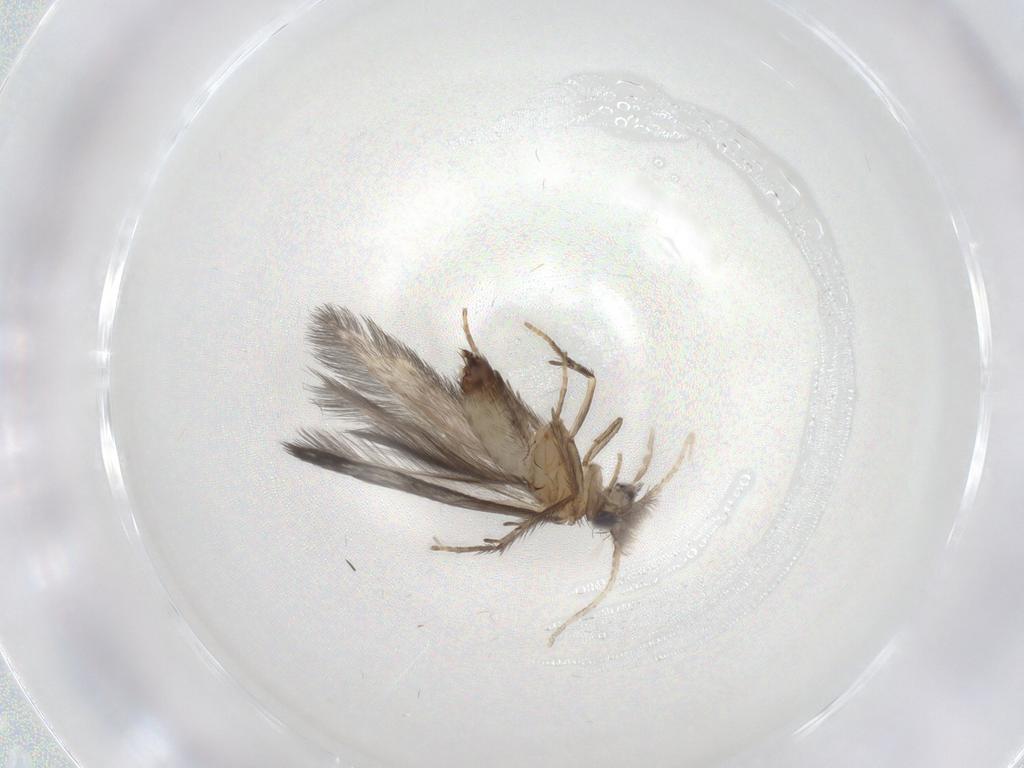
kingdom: Animalia
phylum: Arthropoda
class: Insecta
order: Trichoptera
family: Hydroptilidae
